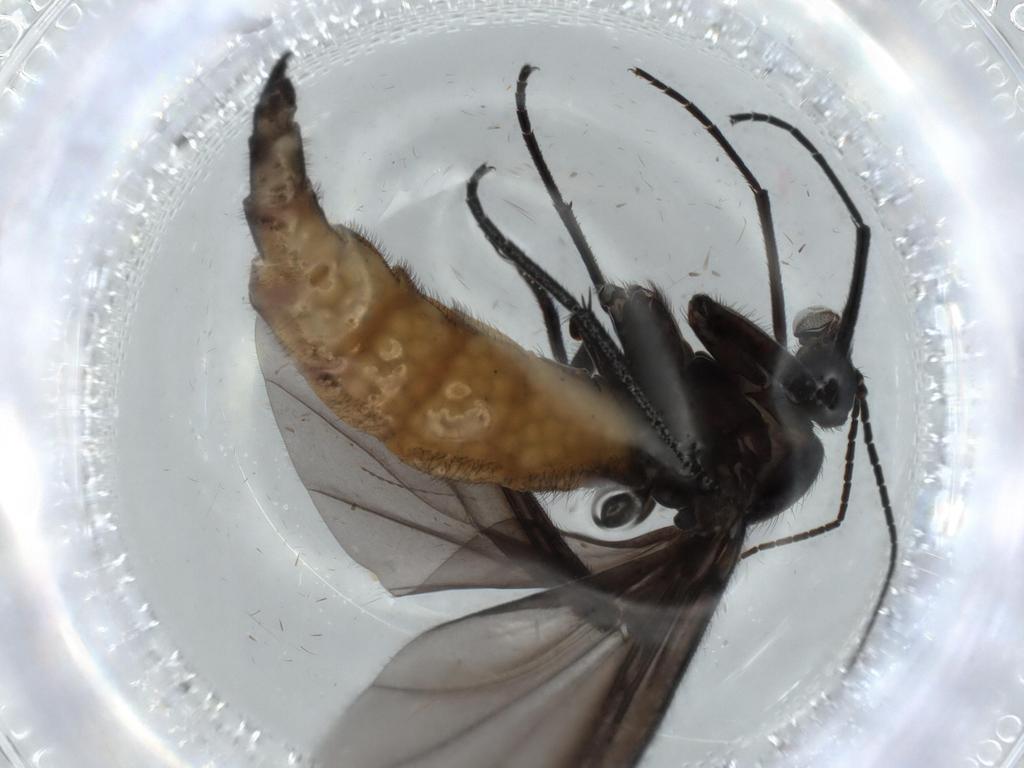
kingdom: Animalia
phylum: Arthropoda
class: Insecta
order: Diptera
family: Chironomidae
